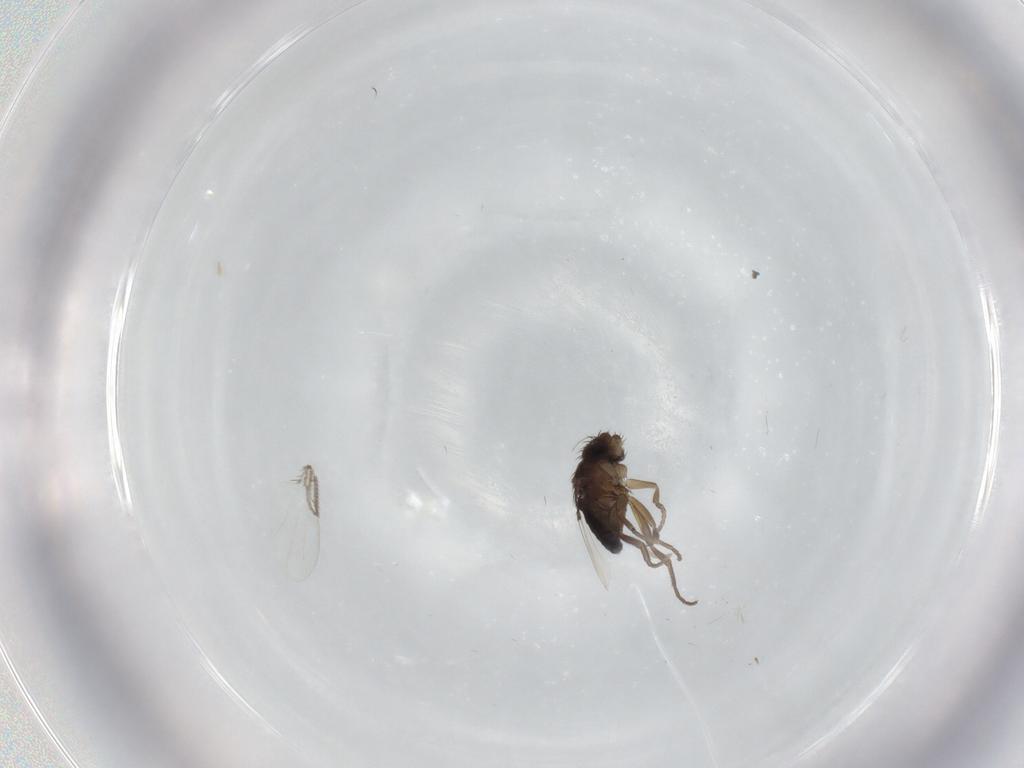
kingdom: Animalia
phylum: Arthropoda
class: Insecta
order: Diptera
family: Phoridae
